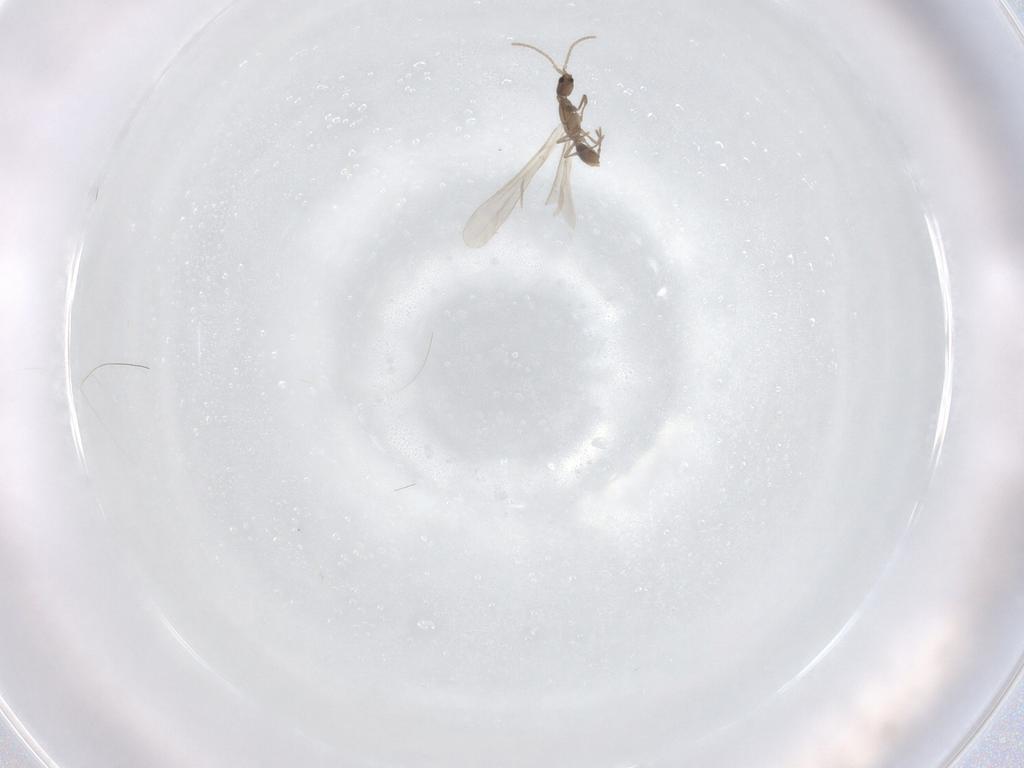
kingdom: Animalia
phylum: Arthropoda
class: Insecta
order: Hymenoptera
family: Formicidae
